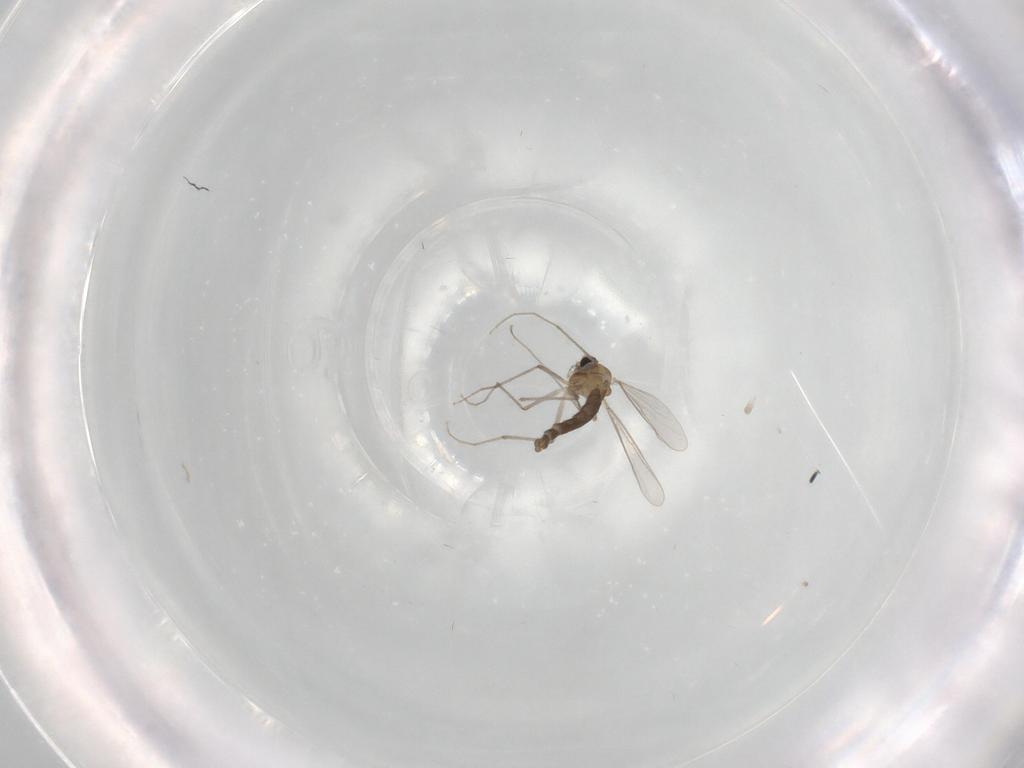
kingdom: Animalia
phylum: Arthropoda
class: Insecta
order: Diptera
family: Chironomidae
